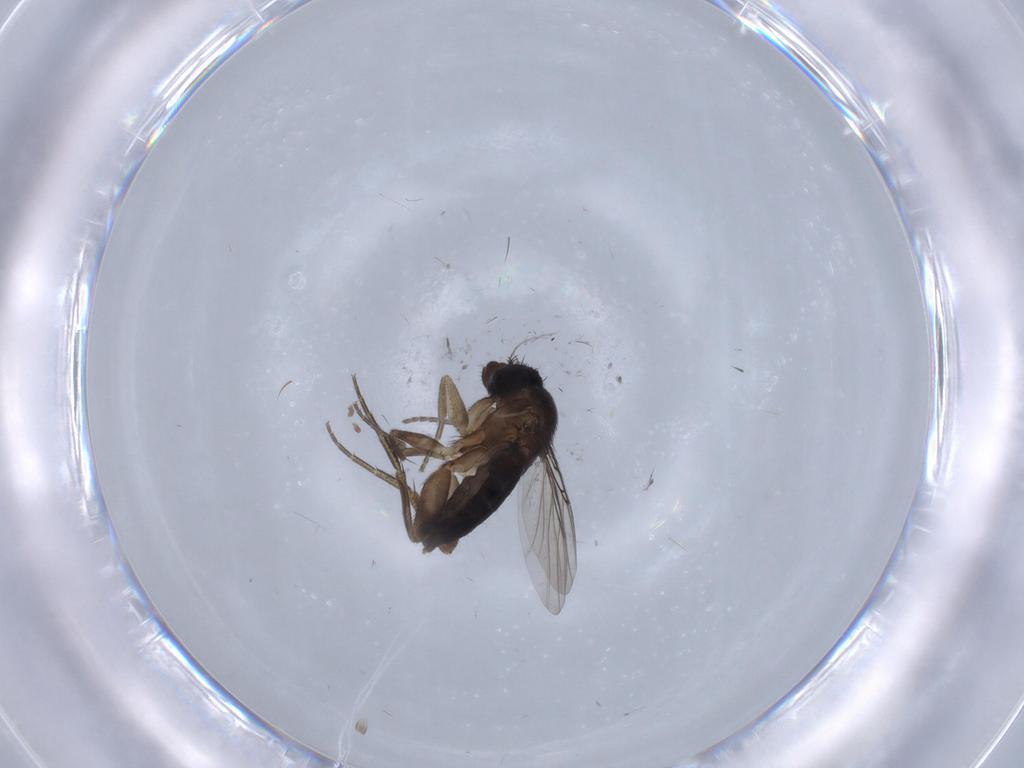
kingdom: Animalia
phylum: Arthropoda
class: Insecta
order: Diptera
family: Phoridae
